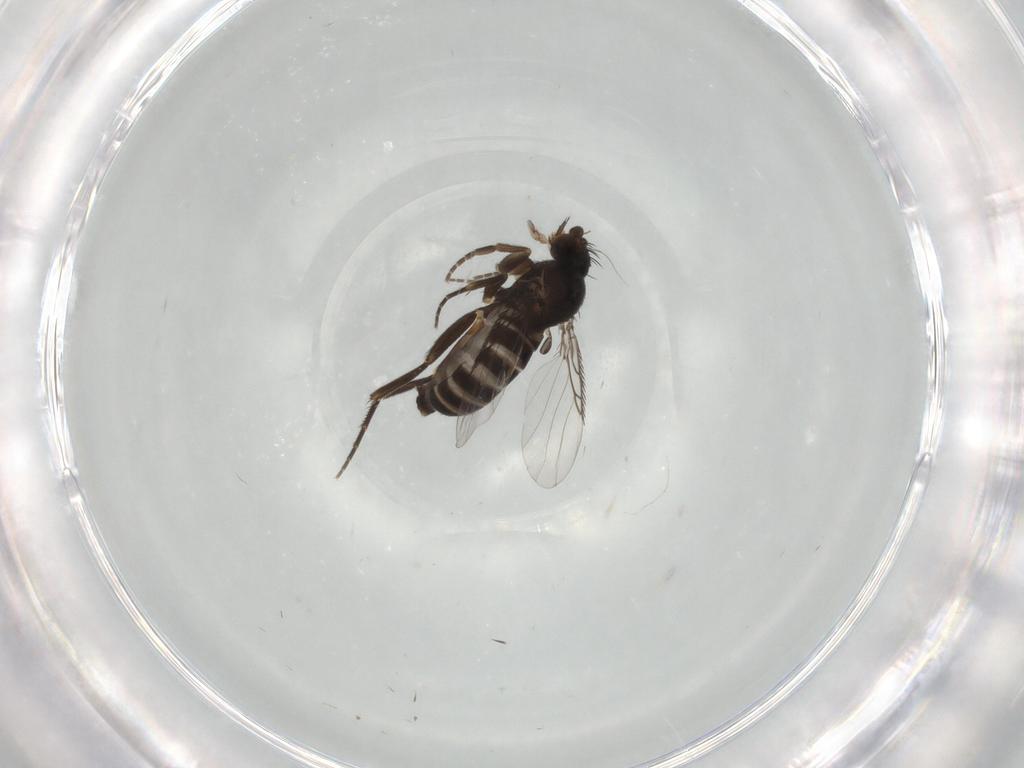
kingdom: Animalia
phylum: Arthropoda
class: Insecta
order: Diptera
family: Phoridae
